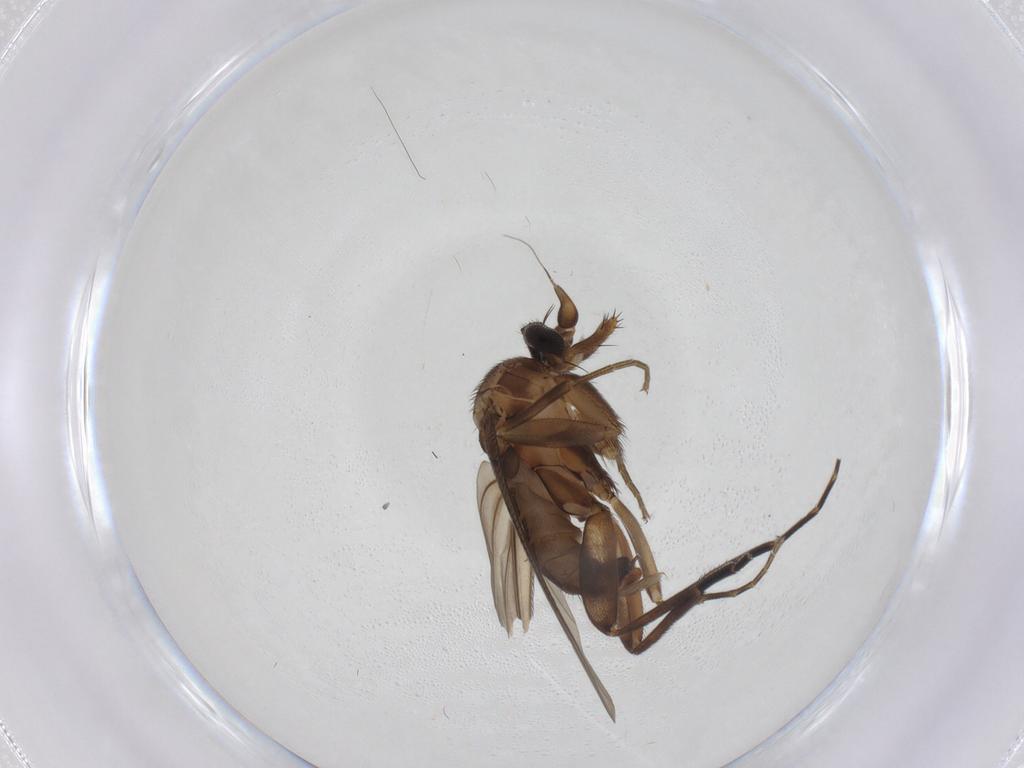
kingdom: Animalia
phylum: Arthropoda
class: Insecta
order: Diptera
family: Phoridae
